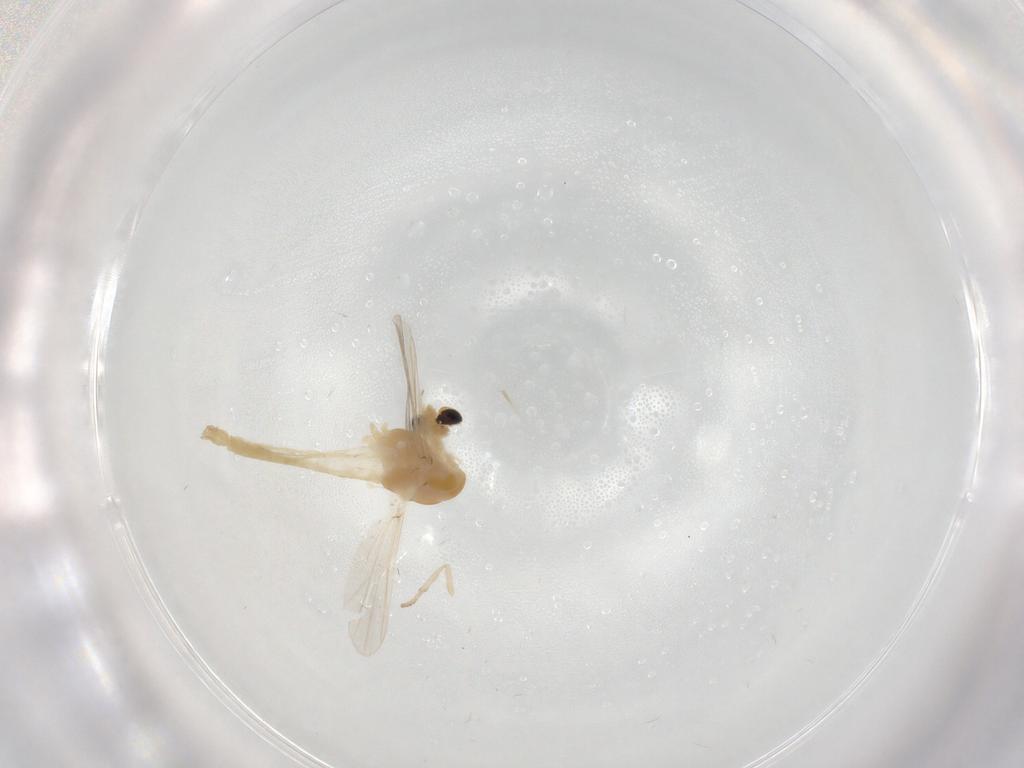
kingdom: Animalia
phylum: Arthropoda
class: Insecta
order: Diptera
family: Chironomidae
